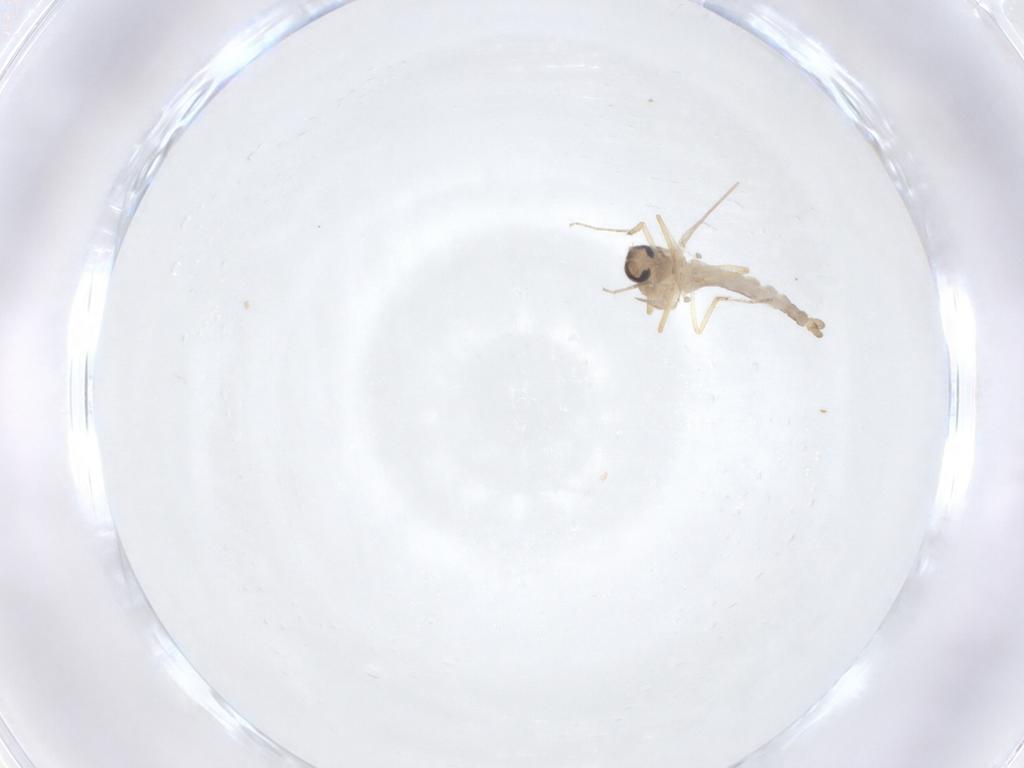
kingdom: Animalia
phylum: Arthropoda
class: Insecta
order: Diptera
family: Ceratopogonidae
